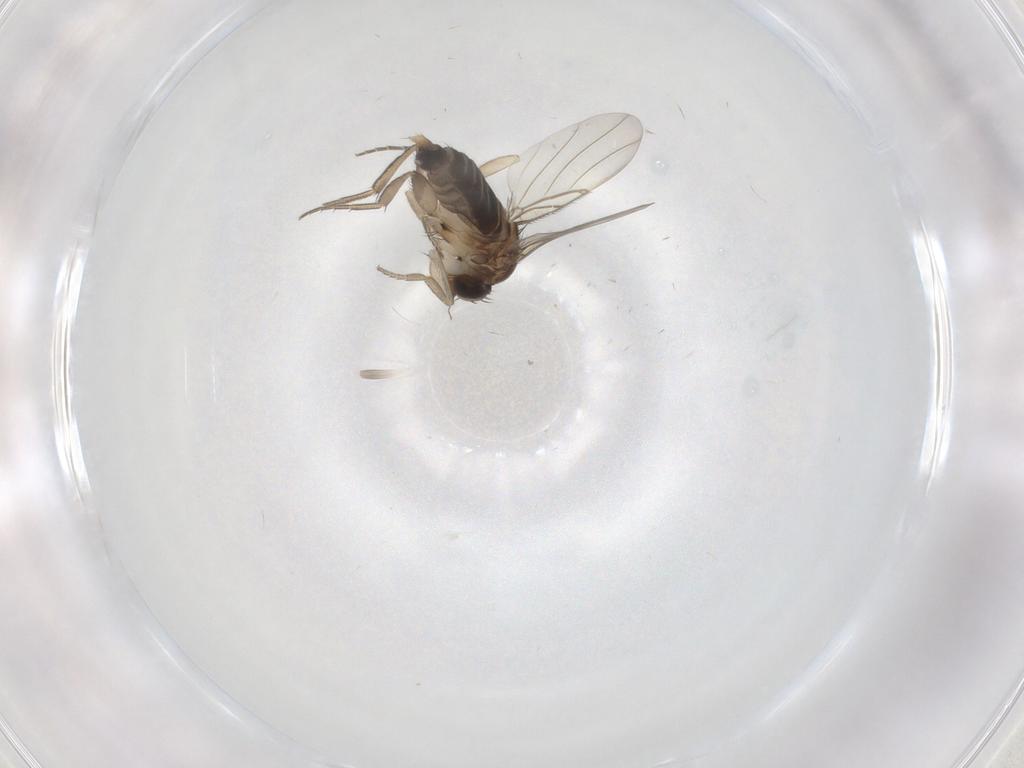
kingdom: Animalia
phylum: Arthropoda
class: Insecta
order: Diptera
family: Phoridae
